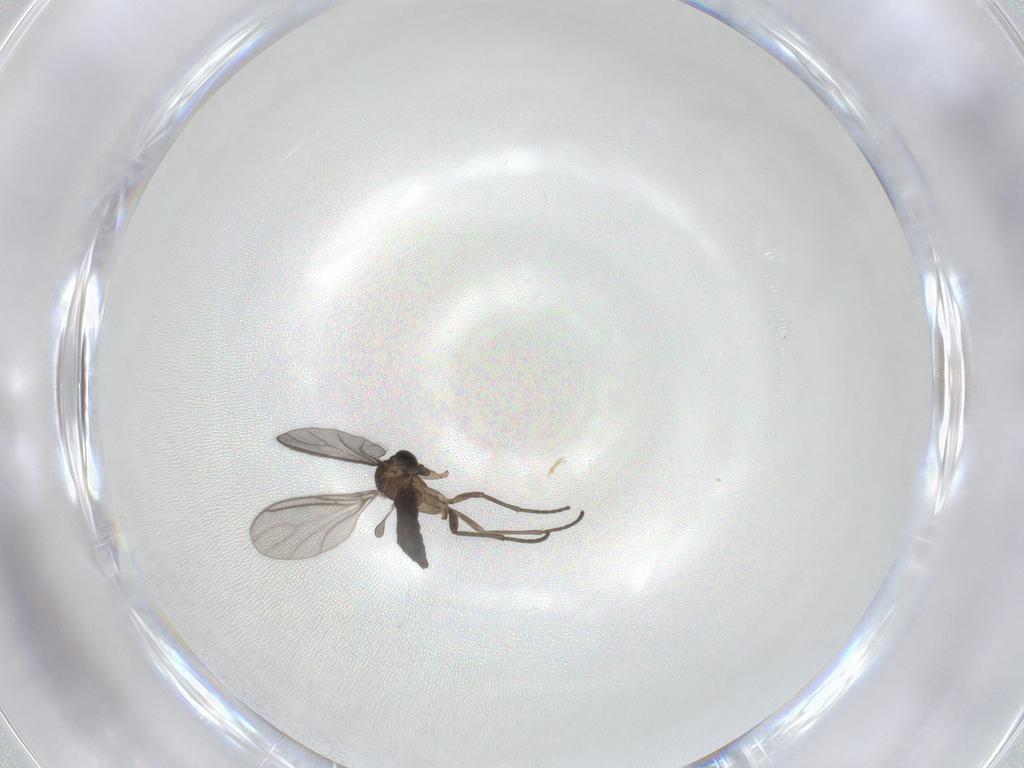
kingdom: Animalia
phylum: Arthropoda
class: Insecta
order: Diptera
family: Phoridae
